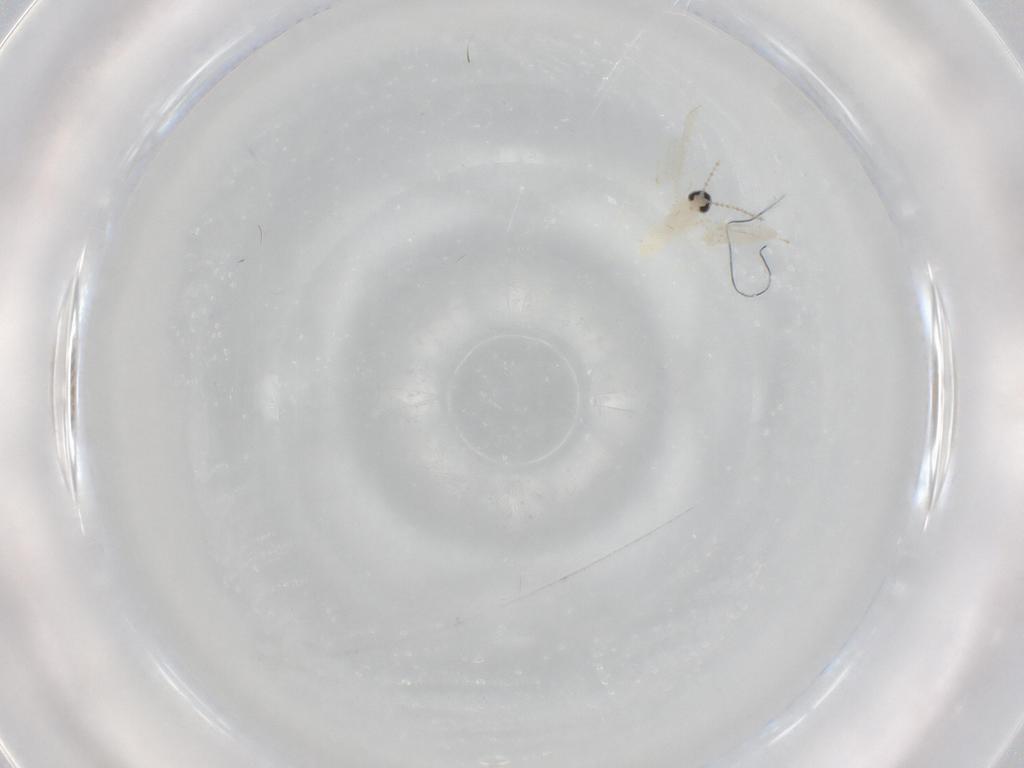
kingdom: Animalia
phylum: Arthropoda
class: Insecta
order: Diptera
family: Cecidomyiidae
